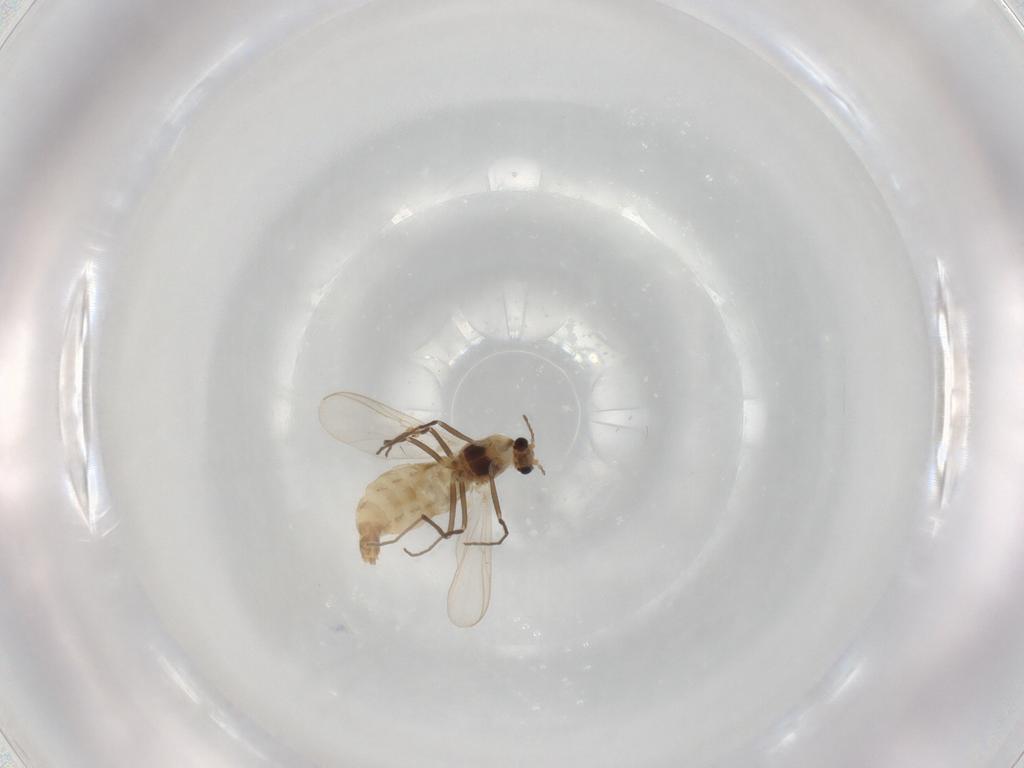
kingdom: Animalia
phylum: Arthropoda
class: Insecta
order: Diptera
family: Chironomidae
